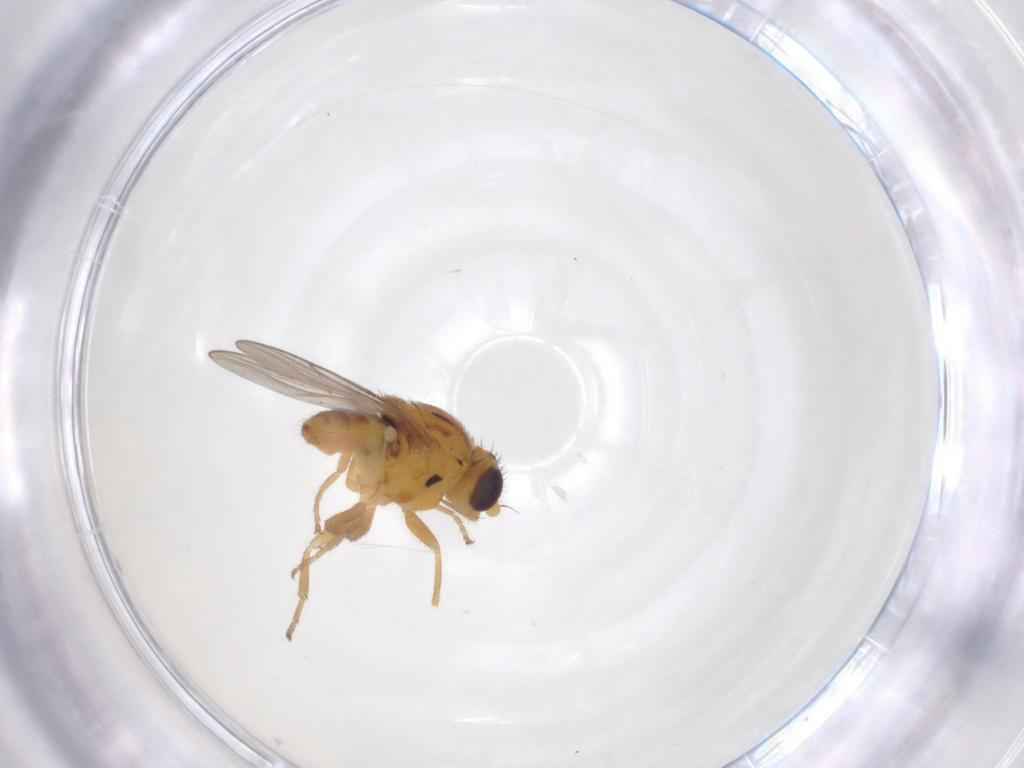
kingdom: Animalia
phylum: Arthropoda
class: Insecta
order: Diptera
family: Chloropidae
